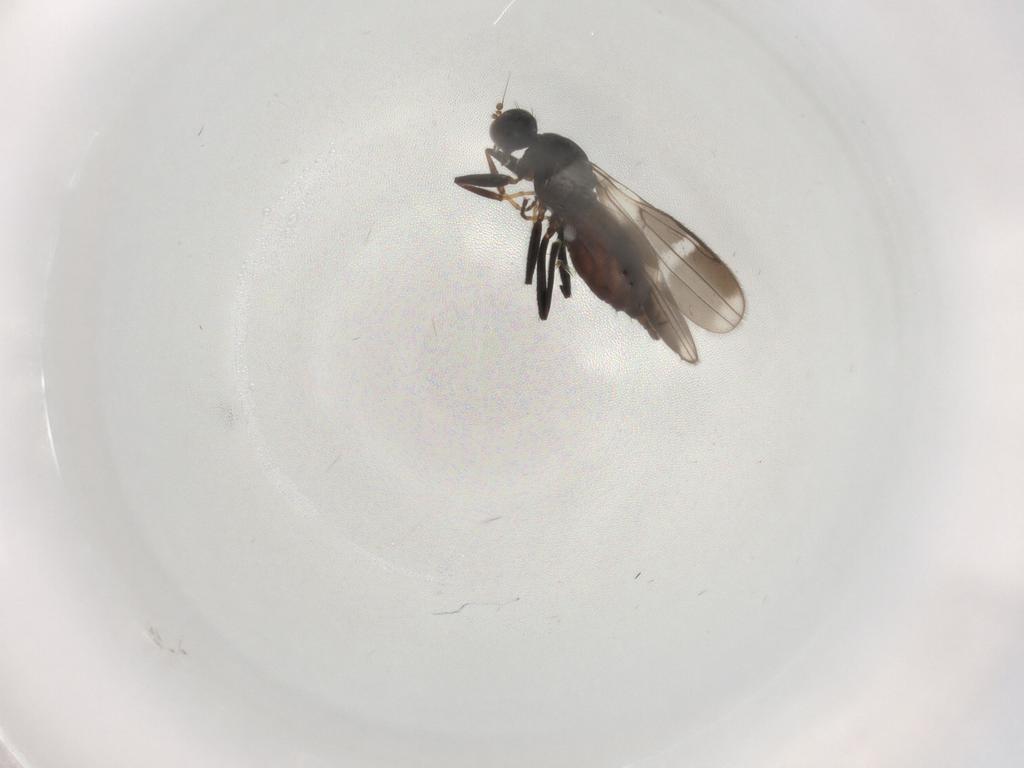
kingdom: Animalia
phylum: Arthropoda
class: Insecta
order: Diptera
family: Hybotidae
